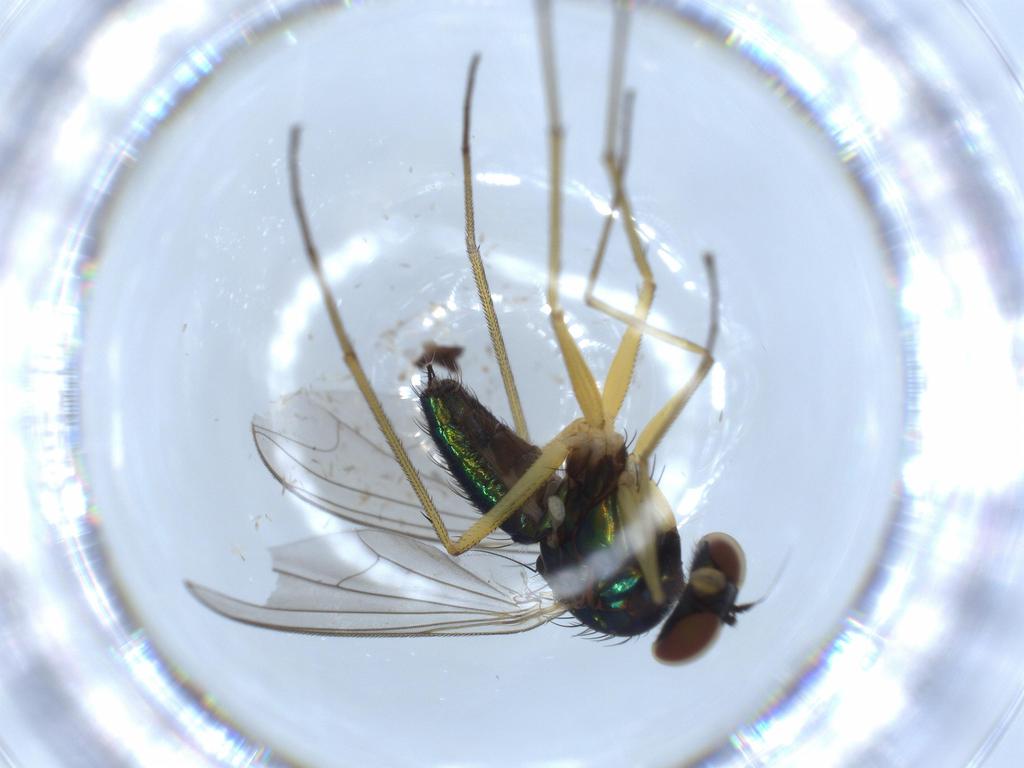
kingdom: Animalia
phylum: Arthropoda
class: Insecta
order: Diptera
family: Dolichopodidae
